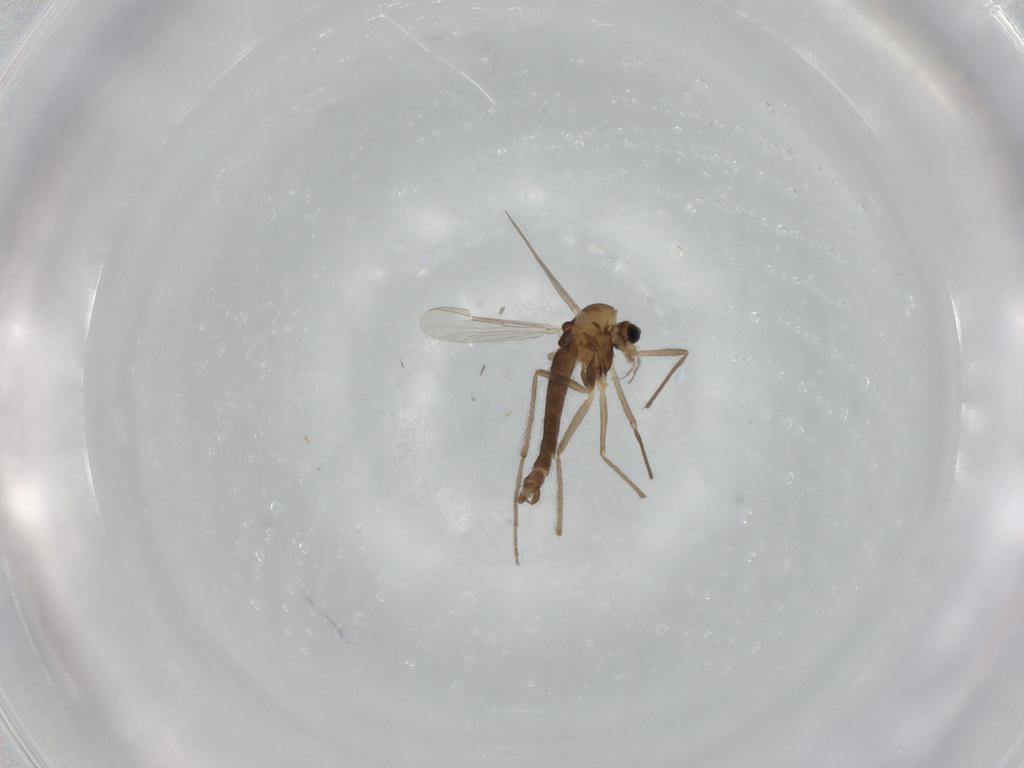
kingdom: Animalia
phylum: Arthropoda
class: Insecta
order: Diptera
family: Chironomidae
